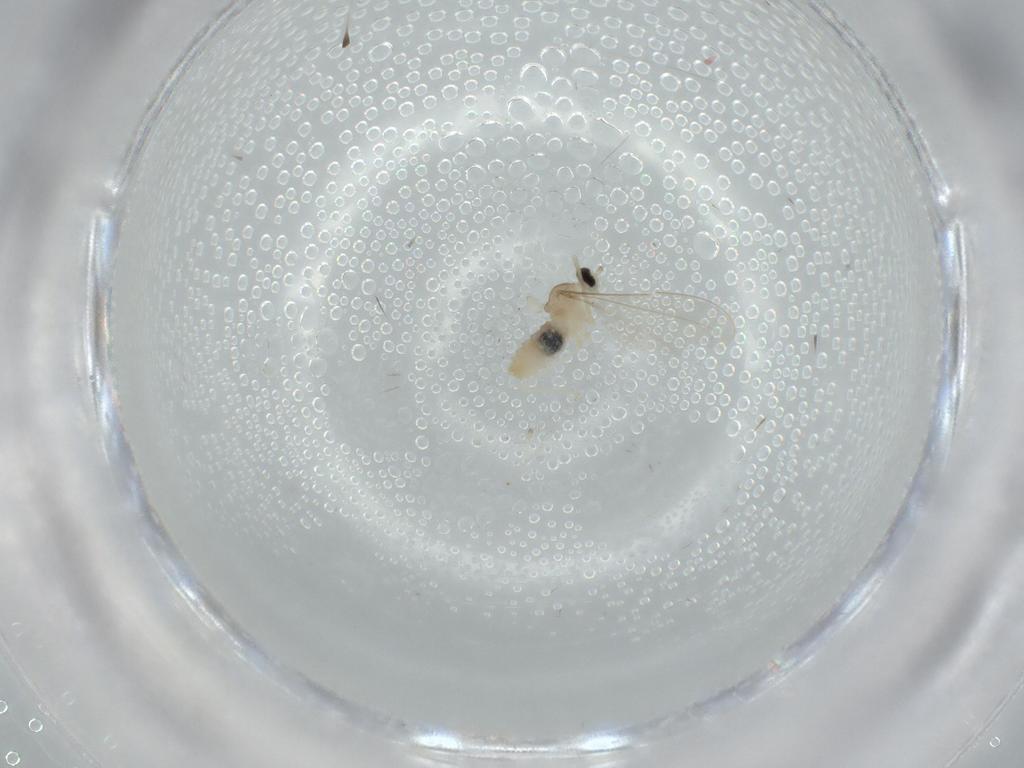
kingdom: Animalia
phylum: Arthropoda
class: Insecta
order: Diptera
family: Cecidomyiidae
